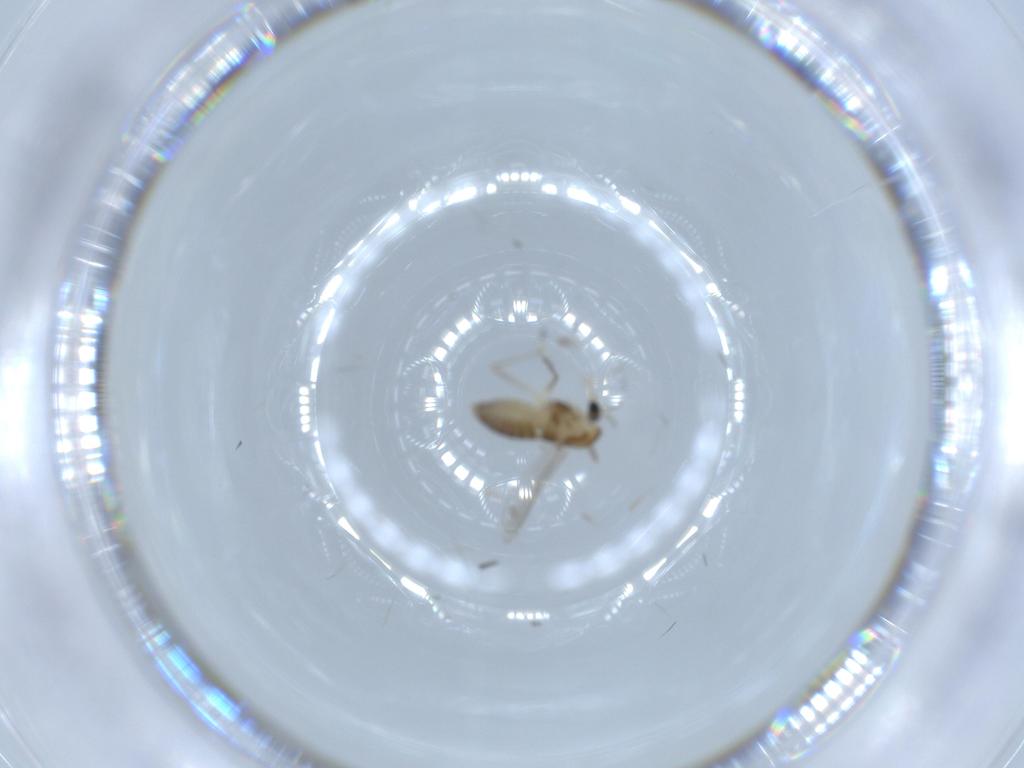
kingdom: Animalia
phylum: Arthropoda
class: Insecta
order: Diptera
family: Chironomidae
